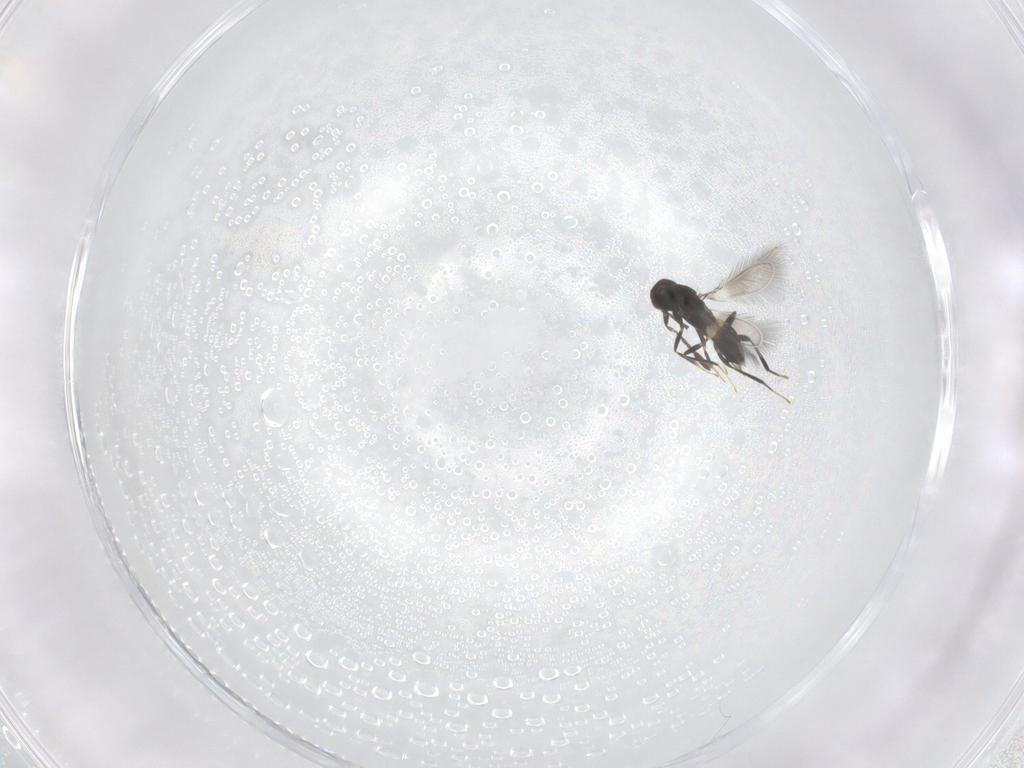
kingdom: Animalia
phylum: Arthropoda
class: Insecta
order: Hymenoptera
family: Mymaridae
